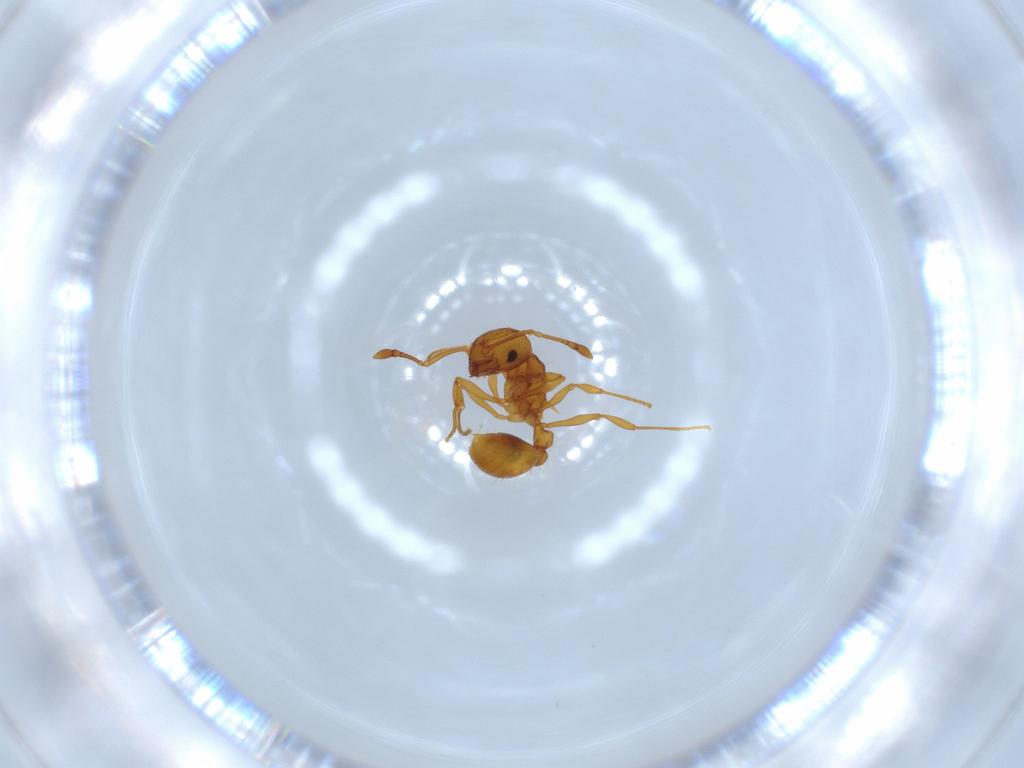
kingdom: Animalia
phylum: Arthropoda
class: Insecta
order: Hymenoptera
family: Formicidae
